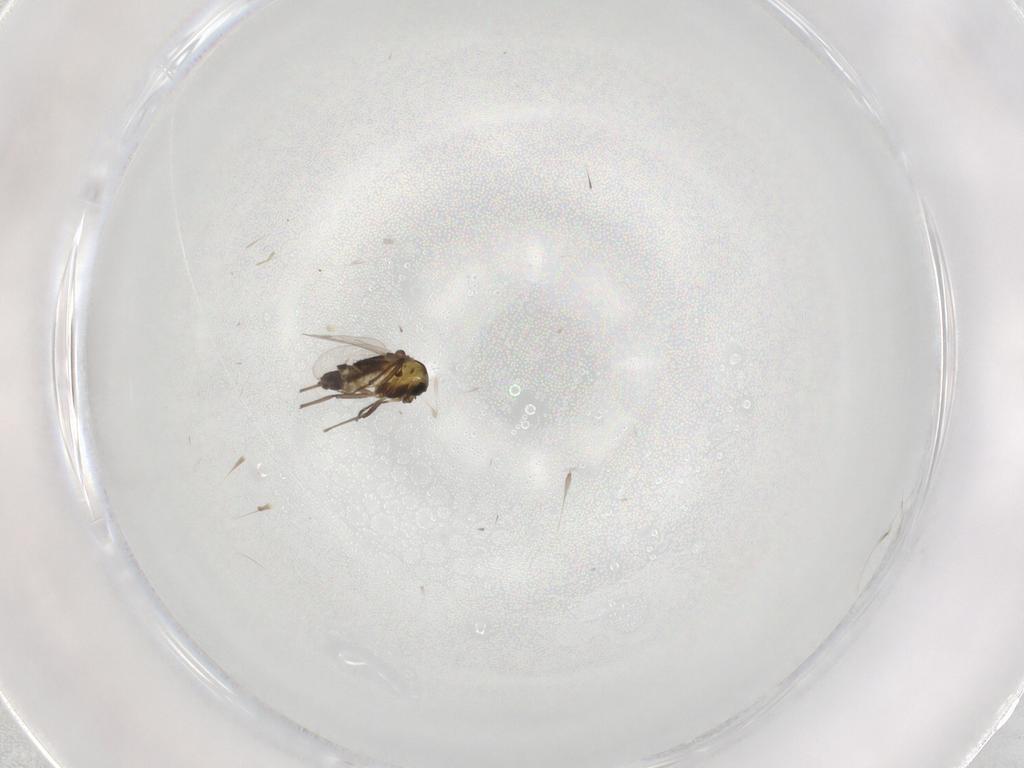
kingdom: Animalia
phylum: Arthropoda
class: Insecta
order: Diptera
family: Chironomidae
